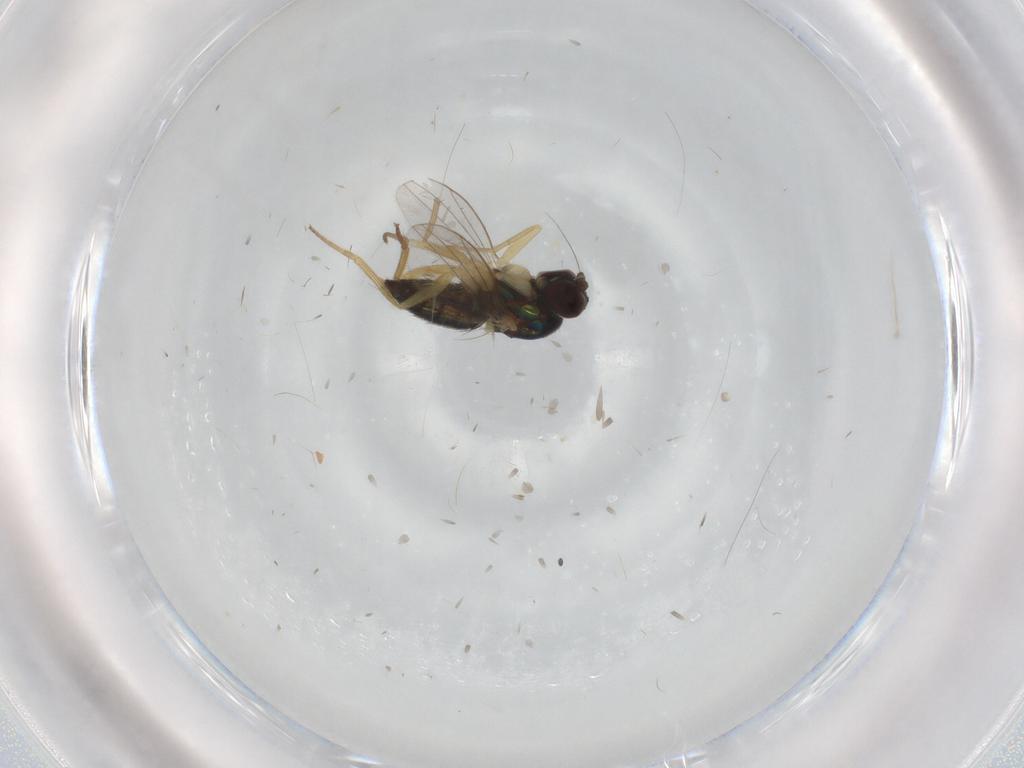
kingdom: Animalia
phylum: Arthropoda
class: Insecta
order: Diptera
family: Dolichopodidae
